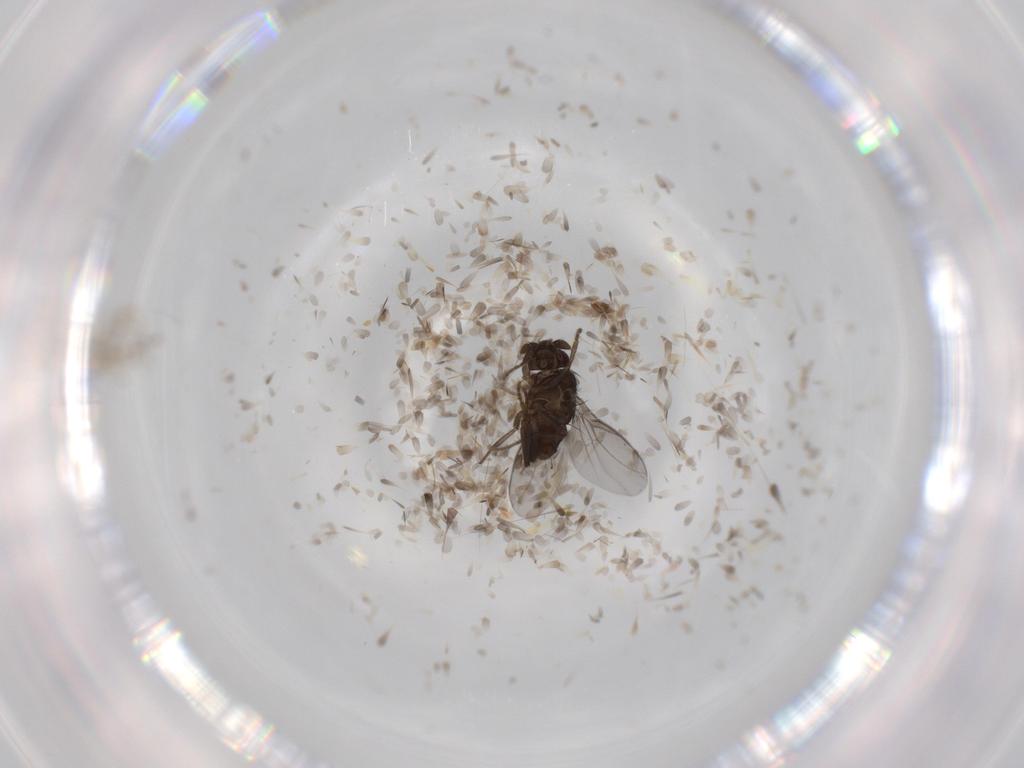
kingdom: Animalia
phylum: Arthropoda
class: Insecta
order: Diptera
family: Sphaeroceridae
